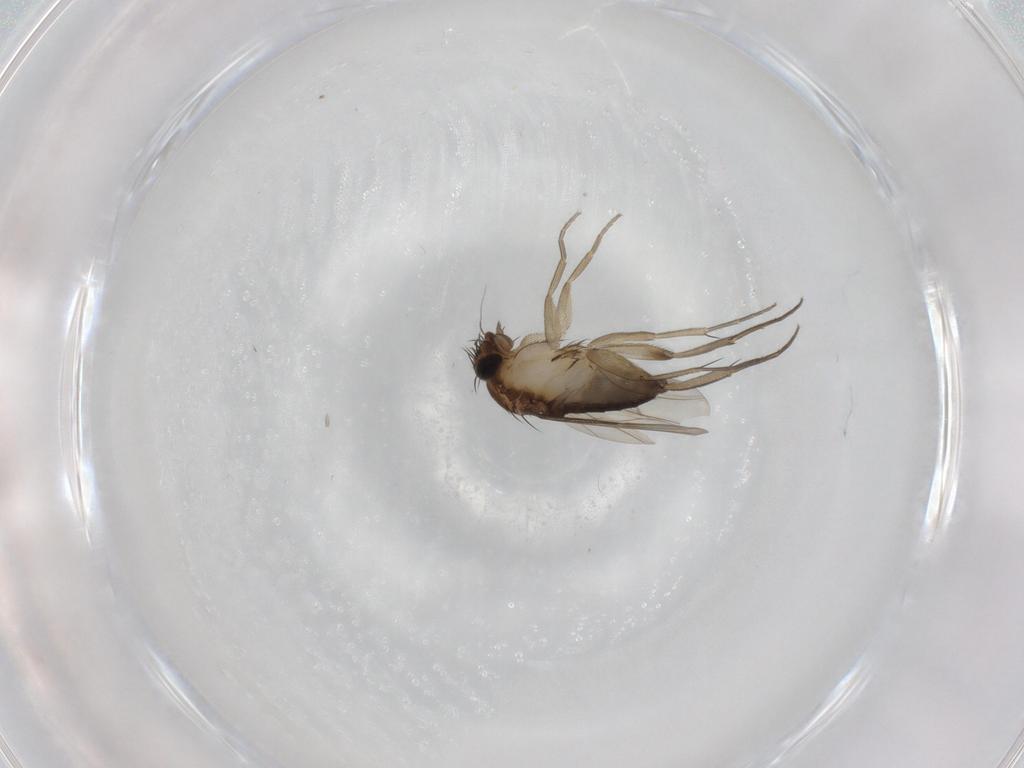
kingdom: Animalia
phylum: Arthropoda
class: Insecta
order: Diptera
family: Phoridae
